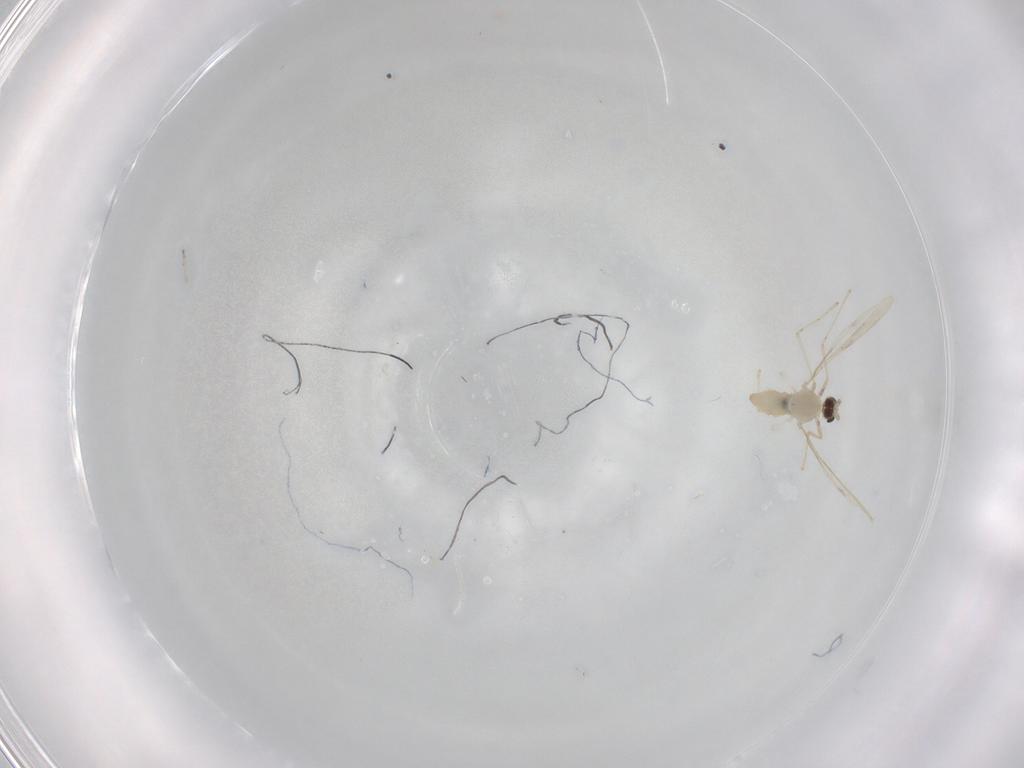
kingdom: Animalia
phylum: Arthropoda
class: Insecta
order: Diptera
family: Cecidomyiidae
